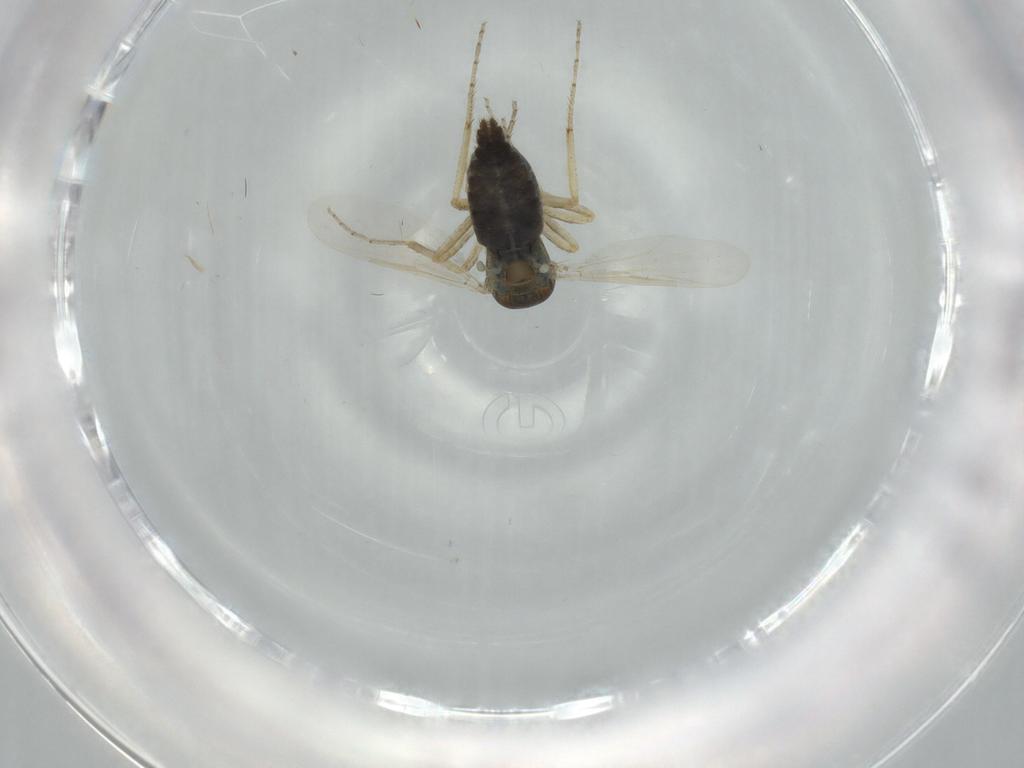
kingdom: Animalia
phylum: Arthropoda
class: Insecta
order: Diptera
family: Ceratopogonidae
